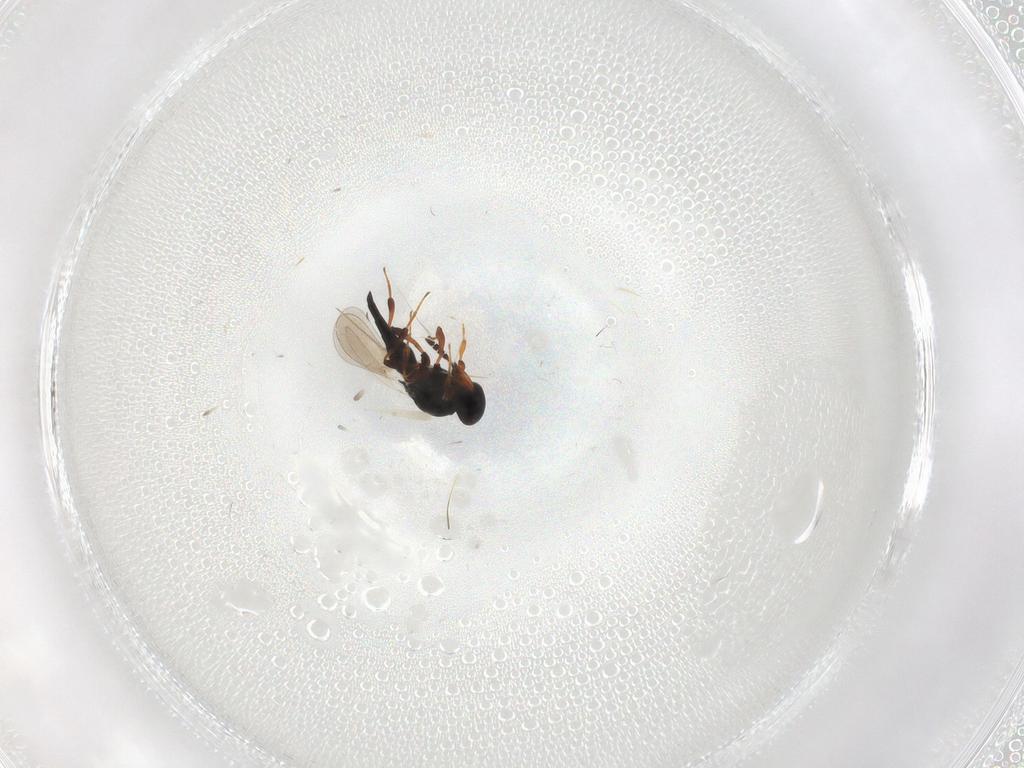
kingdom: Animalia
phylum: Arthropoda
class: Insecta
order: Hymenoptera
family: Platygastridae
